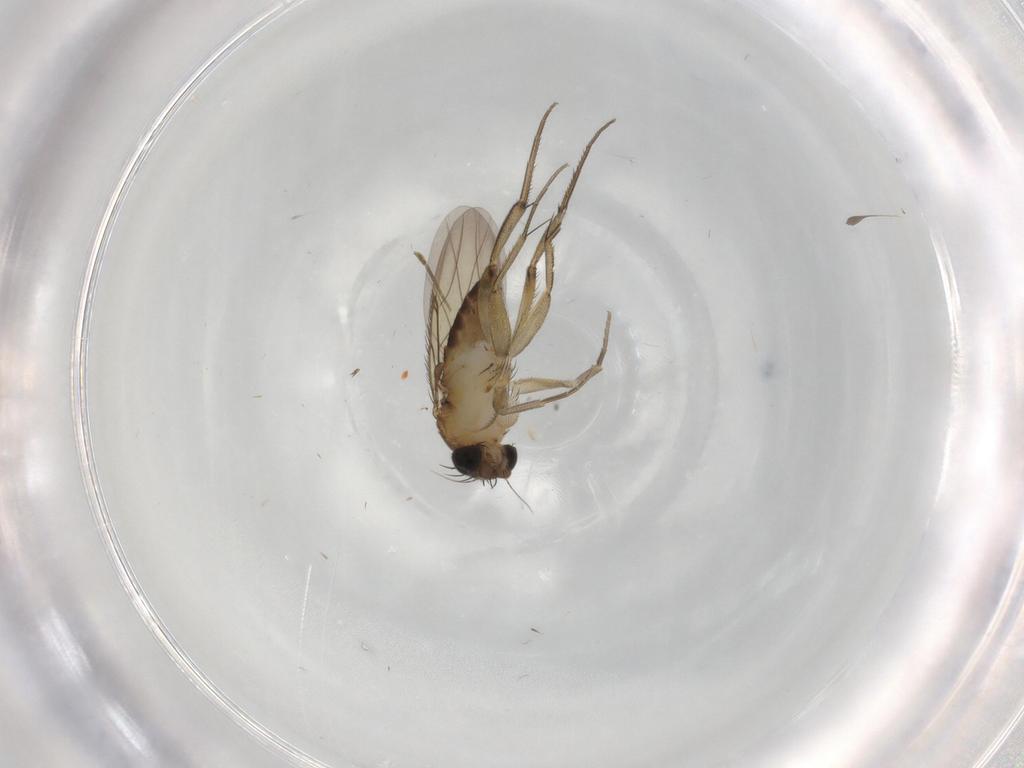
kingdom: Animalia
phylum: Arthropoda
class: Insecta
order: Diptera
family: Phoridae
